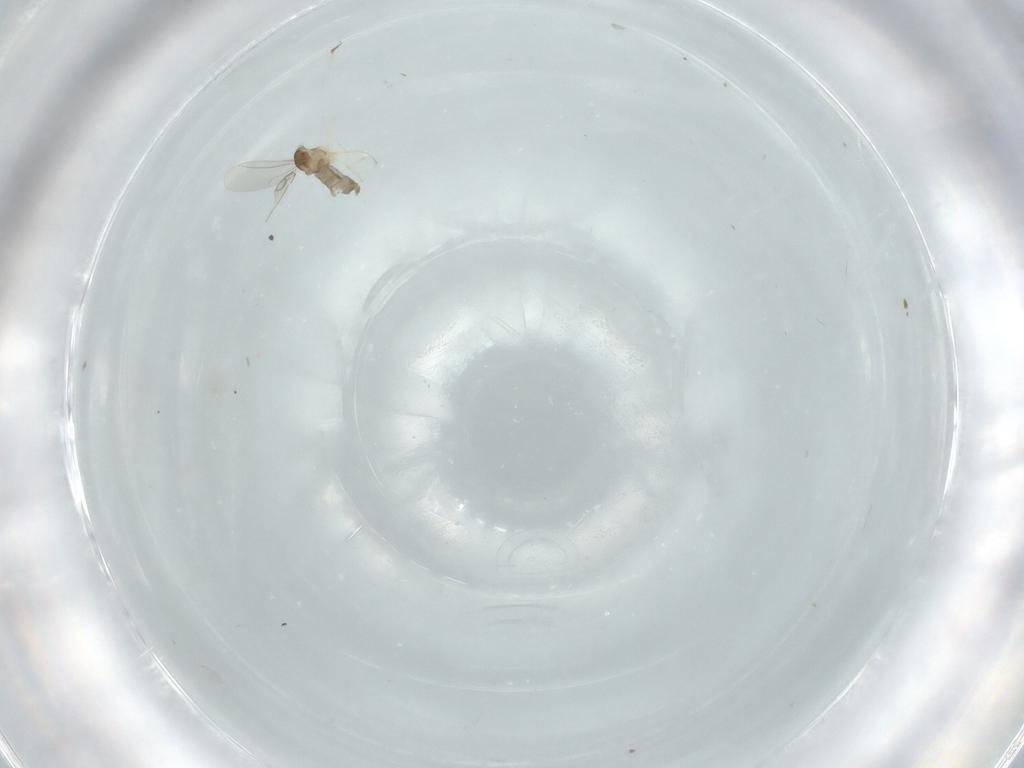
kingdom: Animalia
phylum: Arthropoda
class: Insecta
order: Diptera
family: Cecidomyiidae
